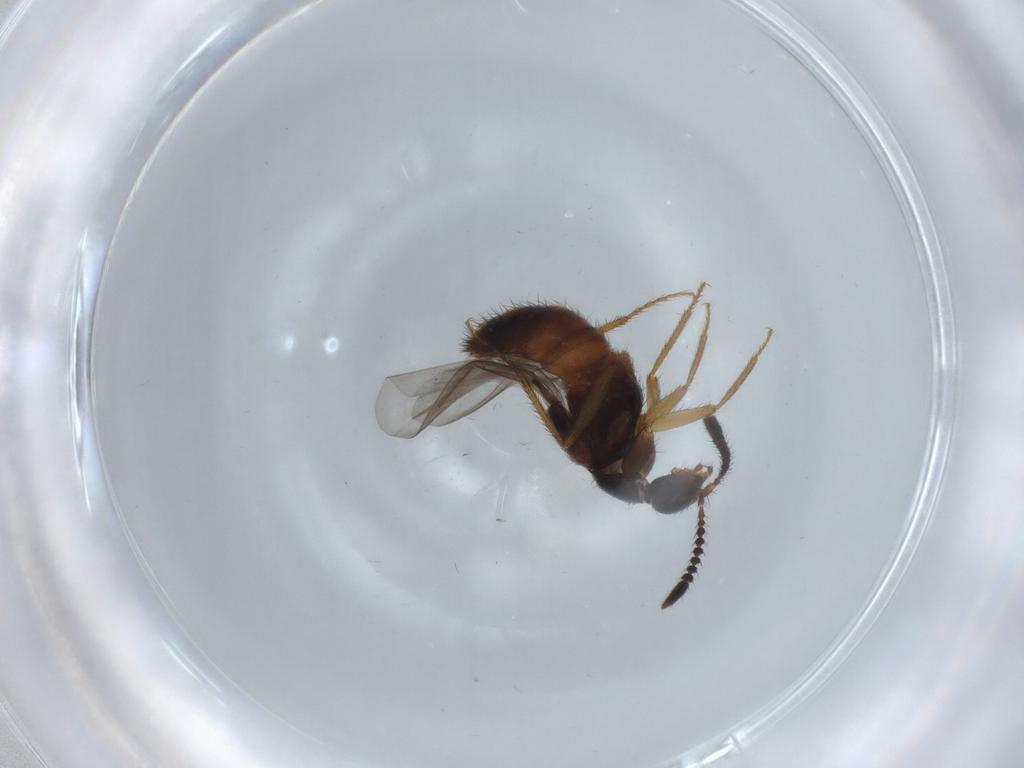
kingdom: Animalia
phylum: Arthropoda
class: Insecta
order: Coleoptera
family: Staphylinidae
